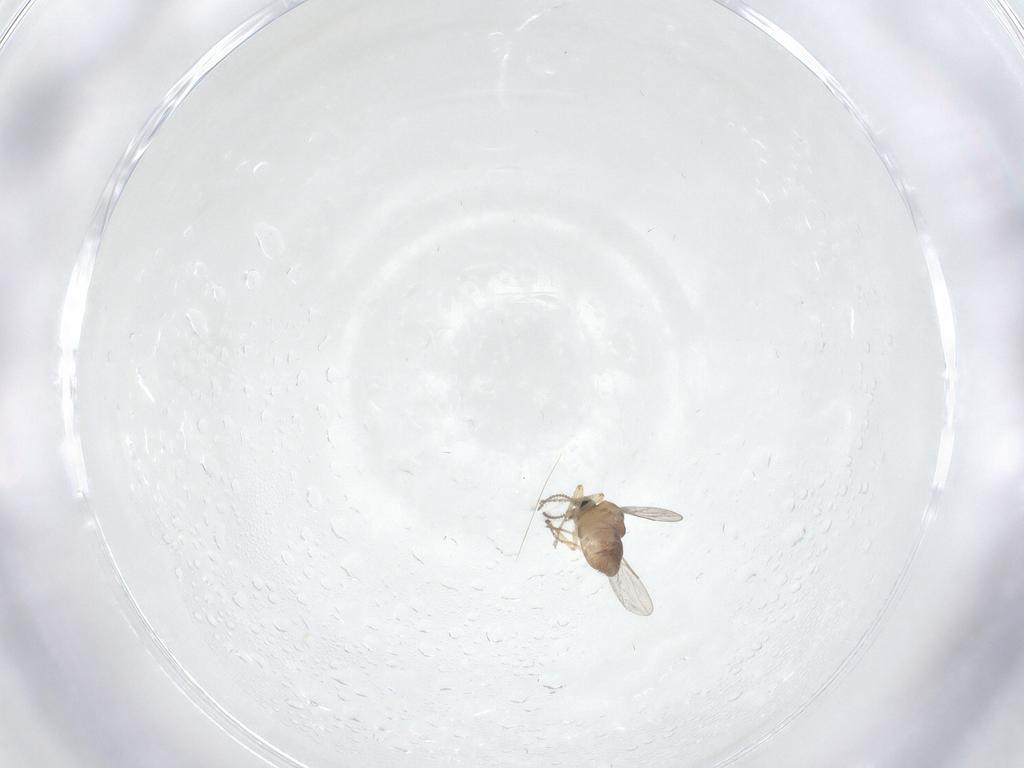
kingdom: Animalia
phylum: Arthropoda
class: Insecta
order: Diptera
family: Ceratopogonidae
